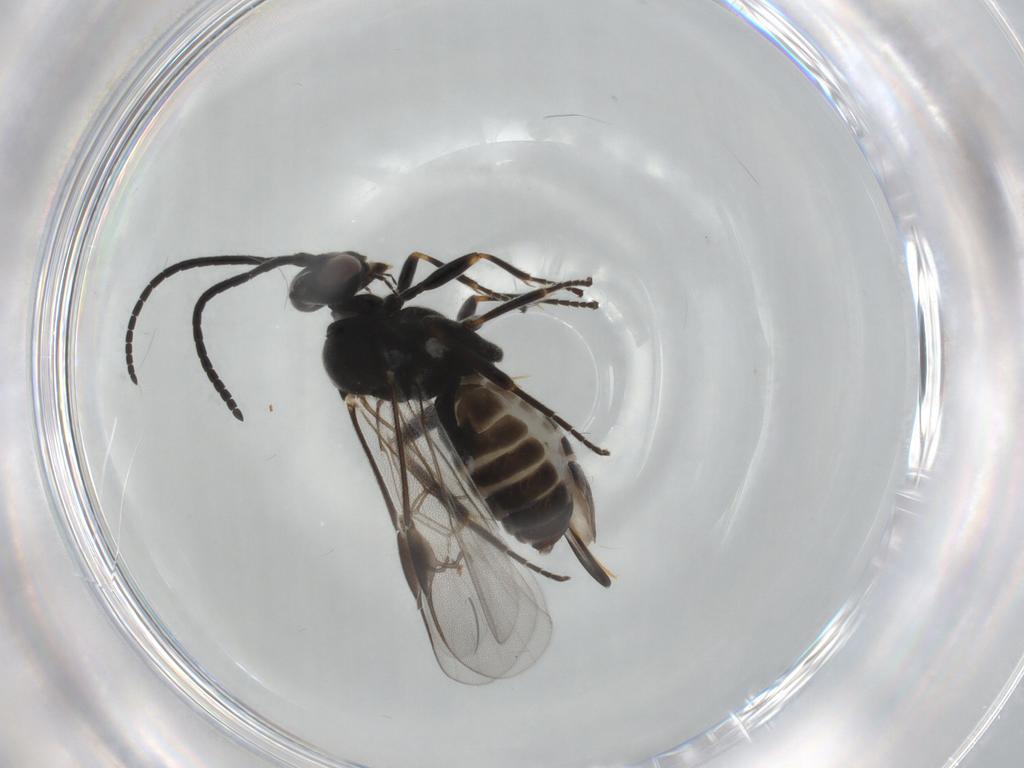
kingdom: Animalia
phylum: Arthropoda
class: Insecta
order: Hymenoptera
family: Braconidae
